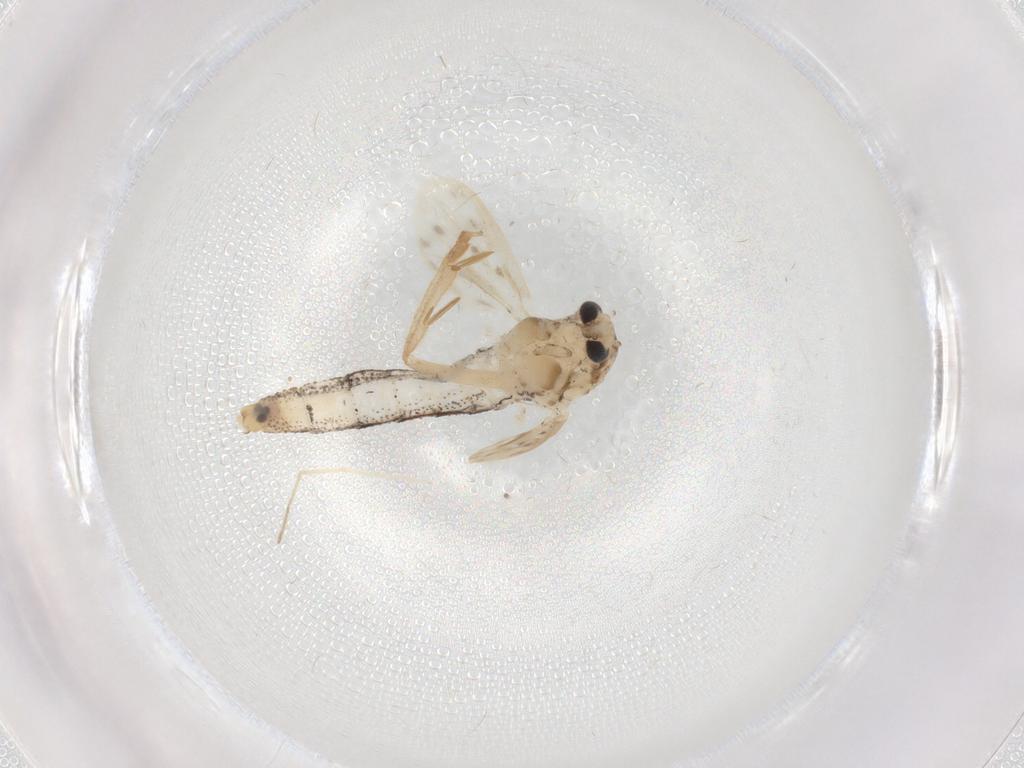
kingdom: Animalia
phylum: Arthropoda
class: Insecta
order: Diptera
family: Chaoboridae
